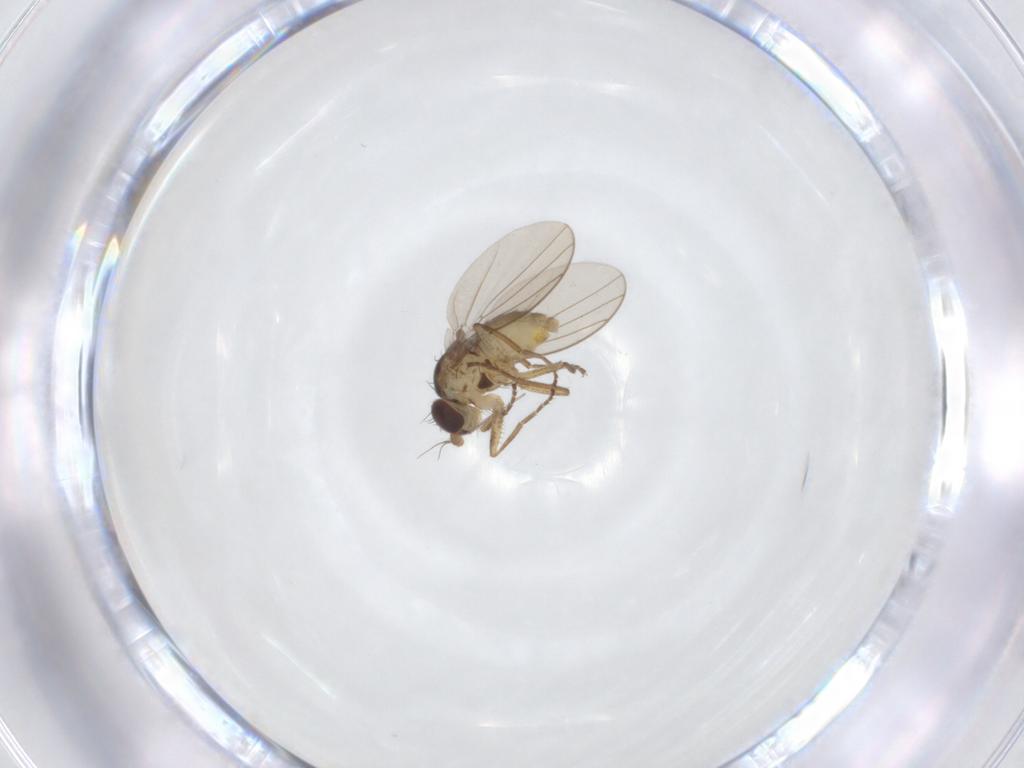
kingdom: Animalia
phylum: Arthropoda
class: Insecta
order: Diptera
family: Agromyzidae
